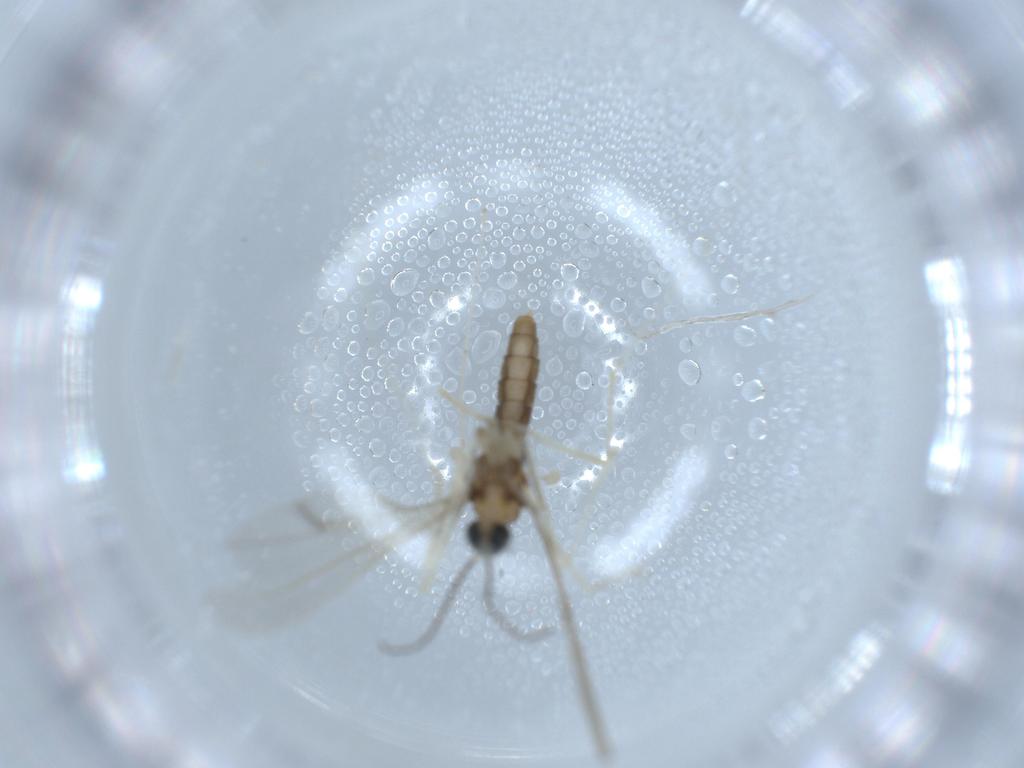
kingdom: Animalia
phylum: Arthropoda
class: Insecta
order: Diptera
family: Cecidomyiidae
